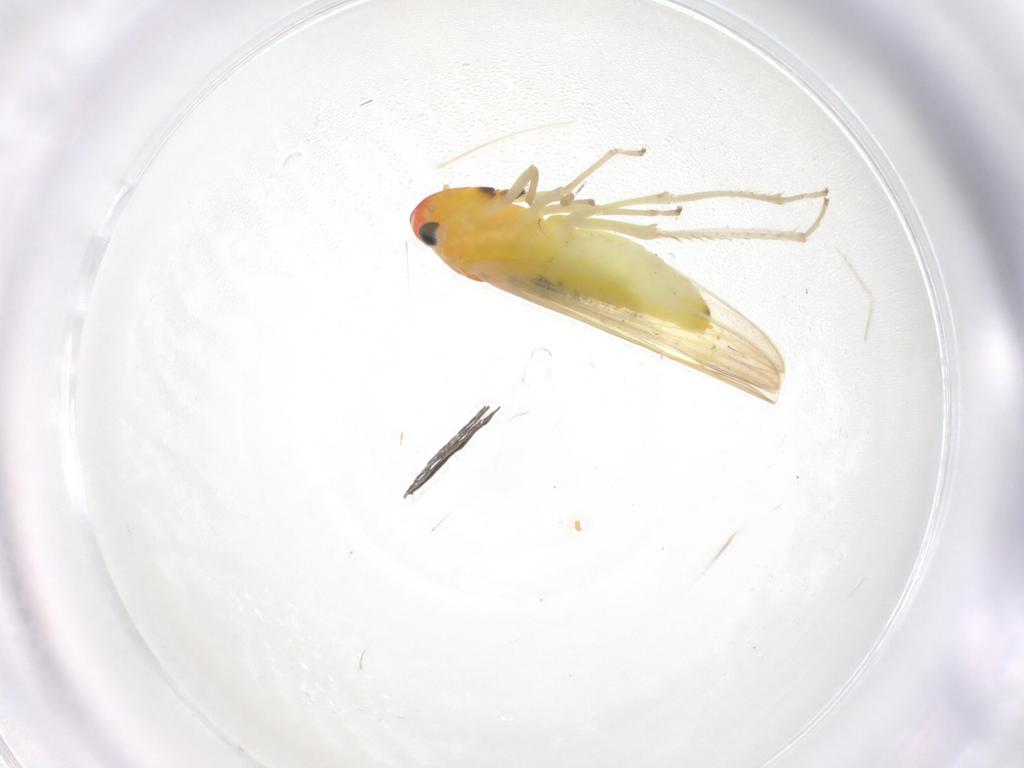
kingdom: Animalia
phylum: Arthropoda
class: Insecta
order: Hemiptera
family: Cicadellidae
